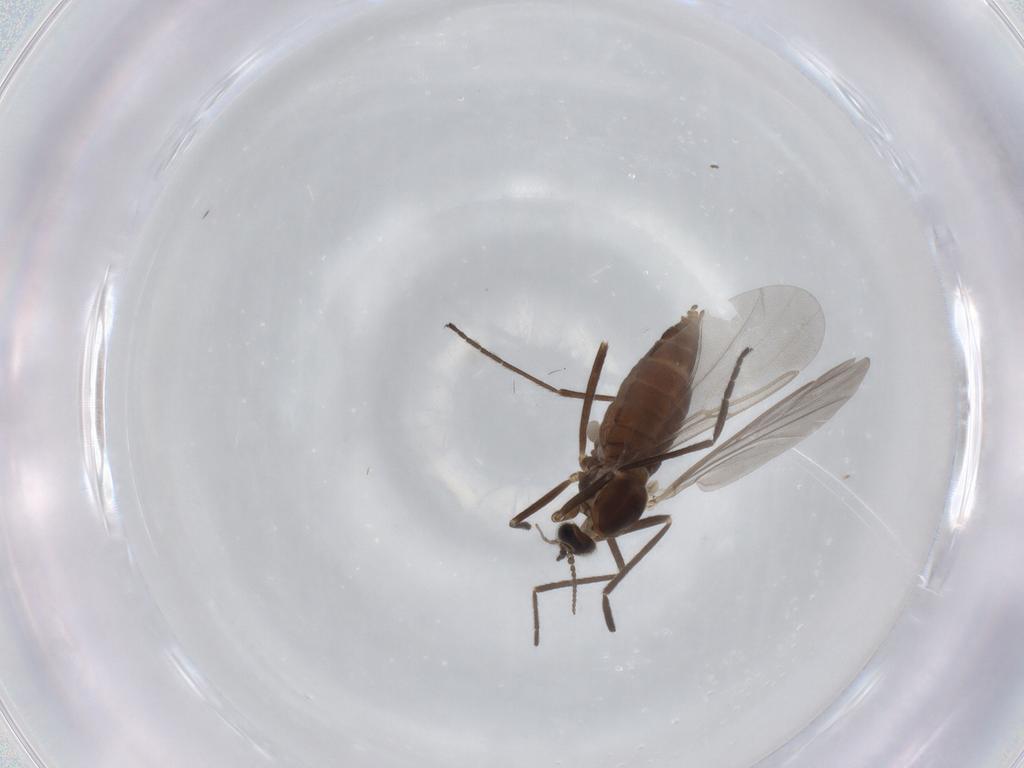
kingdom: Animalia
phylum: Arthropoda
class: Insecta
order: Diptera
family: Cecidomyiidae
